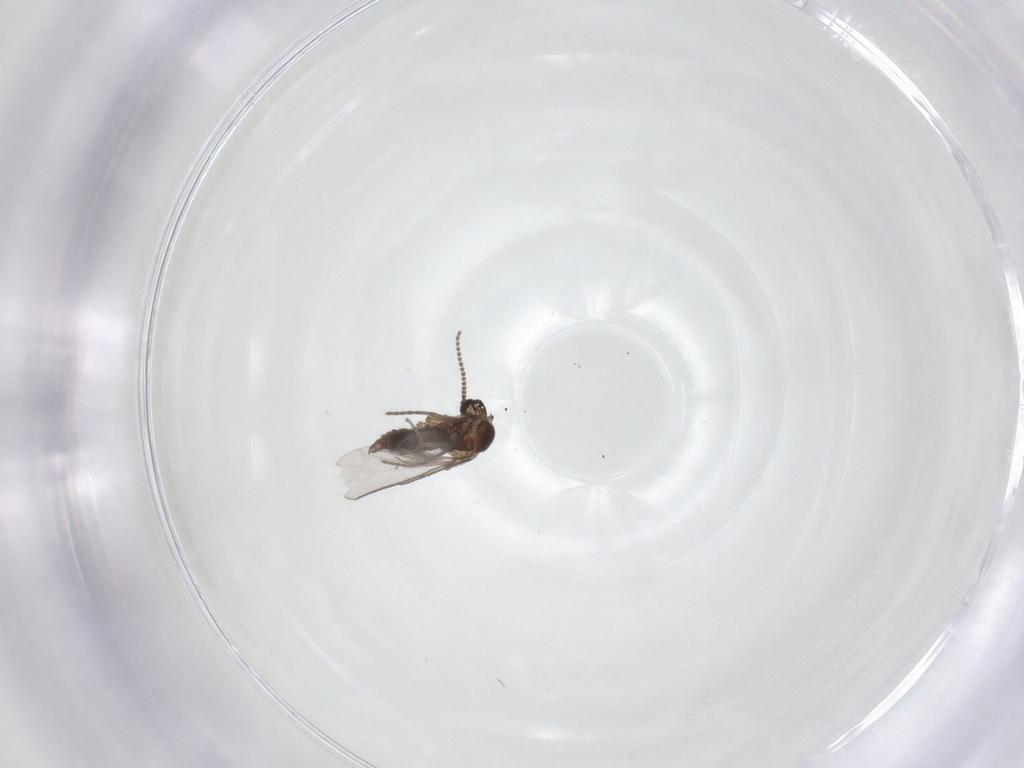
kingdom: Animalia
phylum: Arthropoda
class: Insecta
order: Diptera
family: Sciaridae
